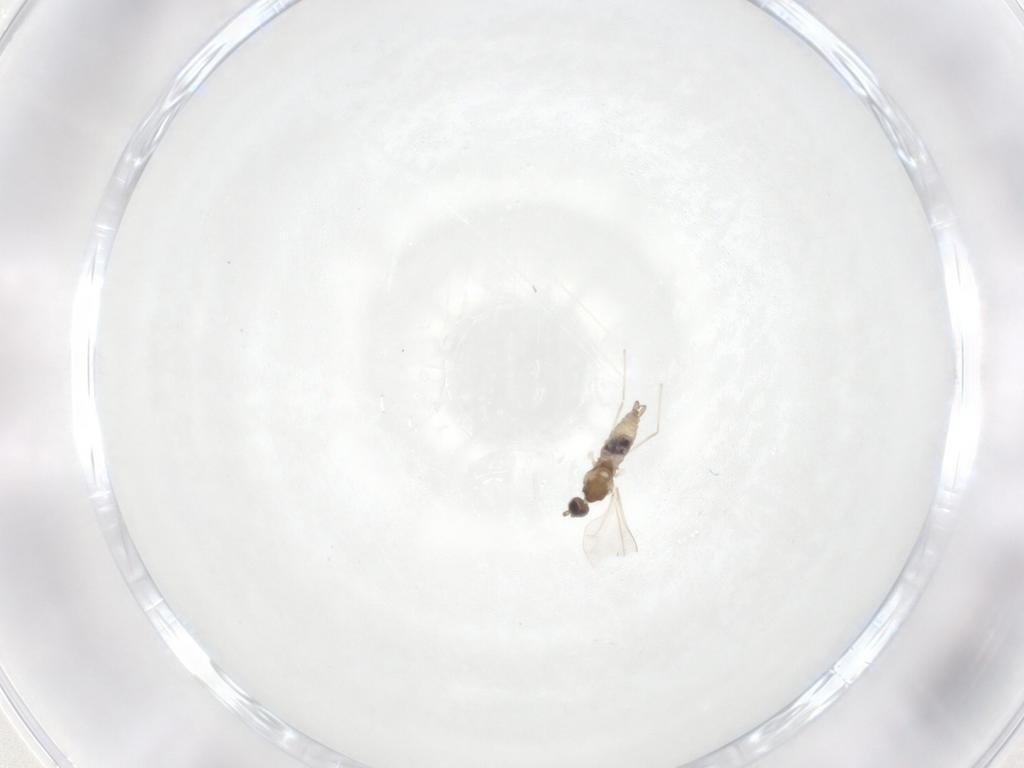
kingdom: Animalia
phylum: Arthropoda
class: Insecta
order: Diptera
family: Cecidomyiidae
